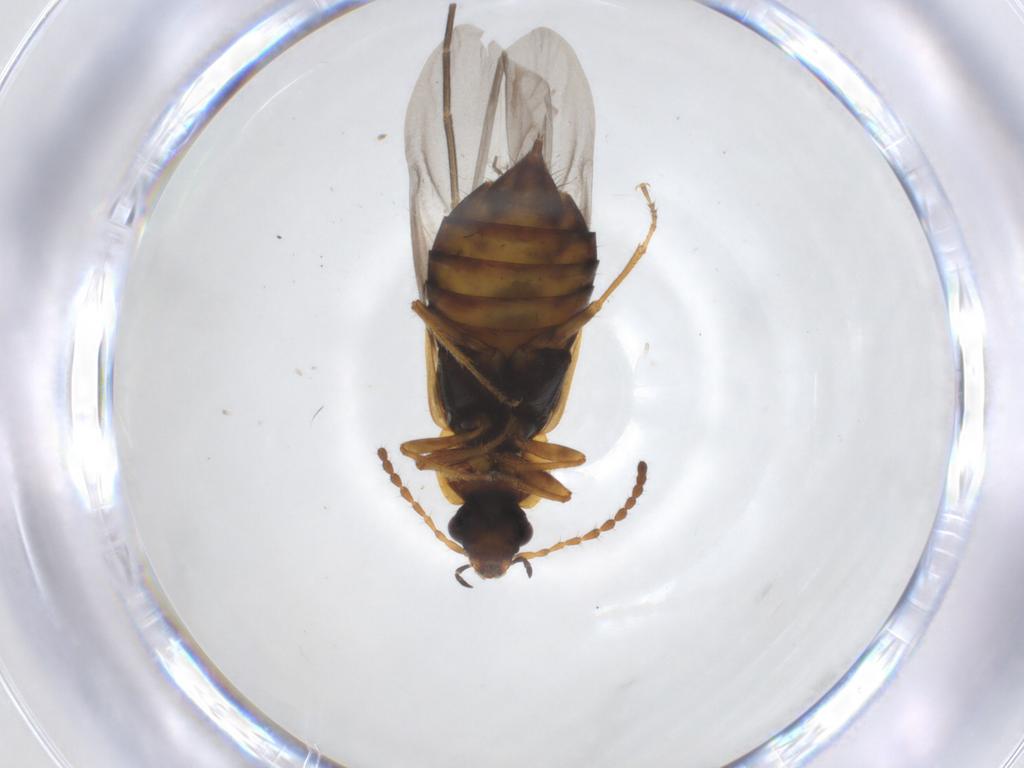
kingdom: Animalia
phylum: Arthropoda
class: Insecta
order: Coleoptera
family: Staphylinidae
